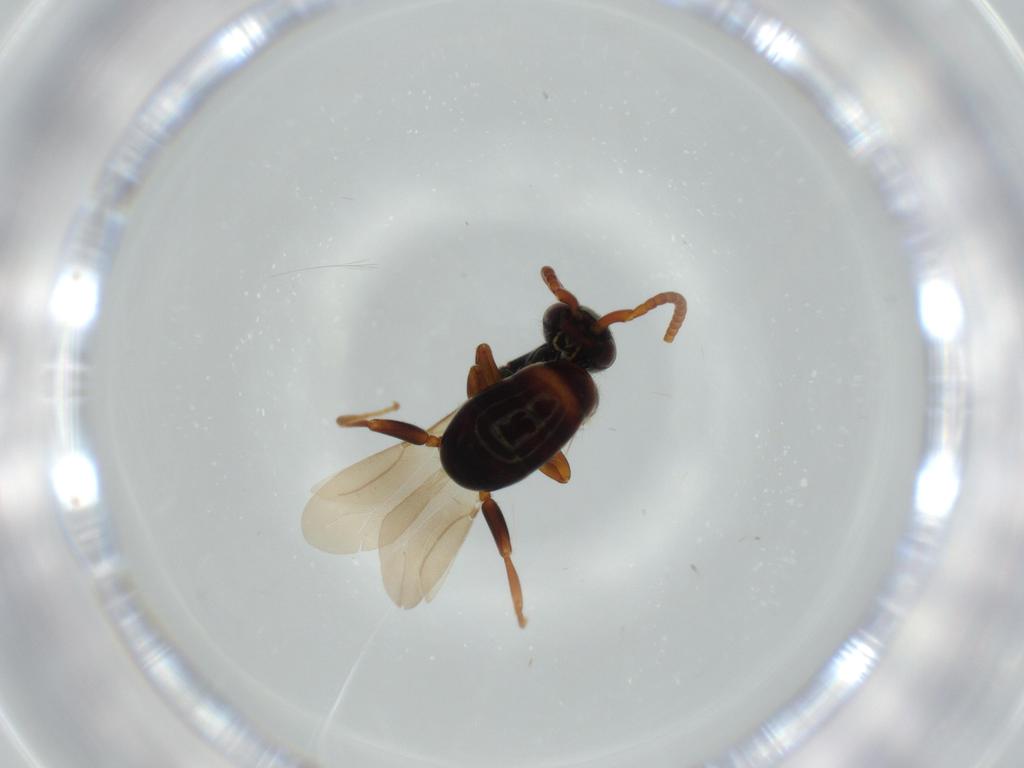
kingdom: Animalia
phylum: Arthropoda
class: Insecta
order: Hymenoptera
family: Bethylidae
